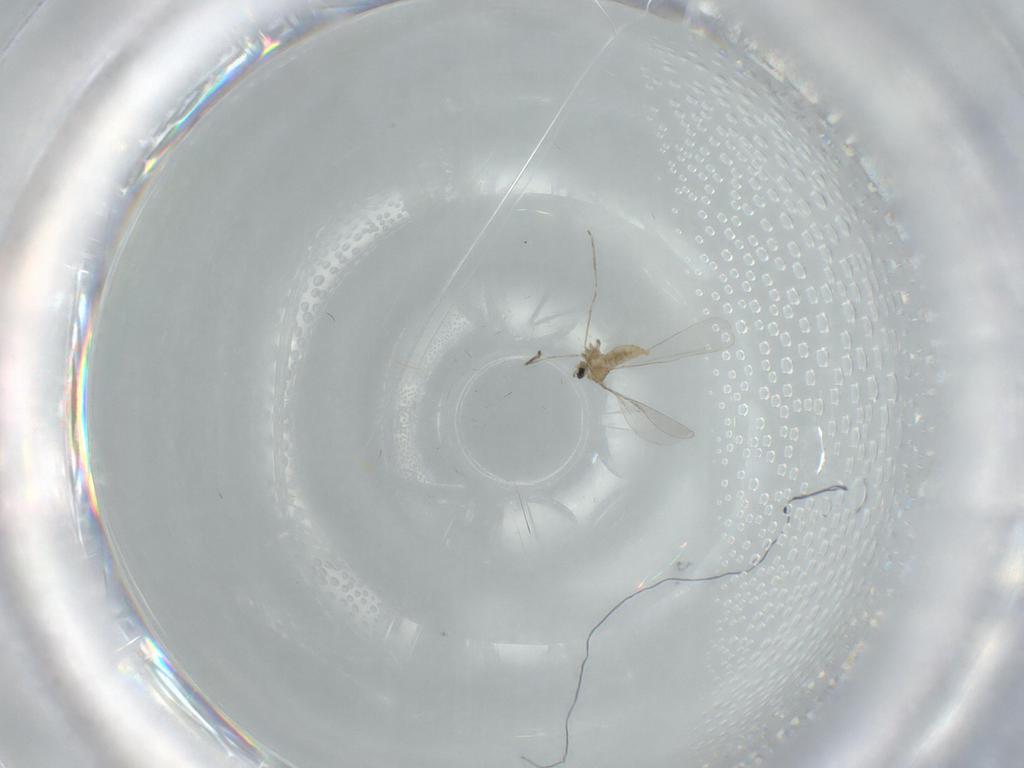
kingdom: Animalia
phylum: Arthropoda
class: Insecta
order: Diptera
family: Cecidomyiidae
